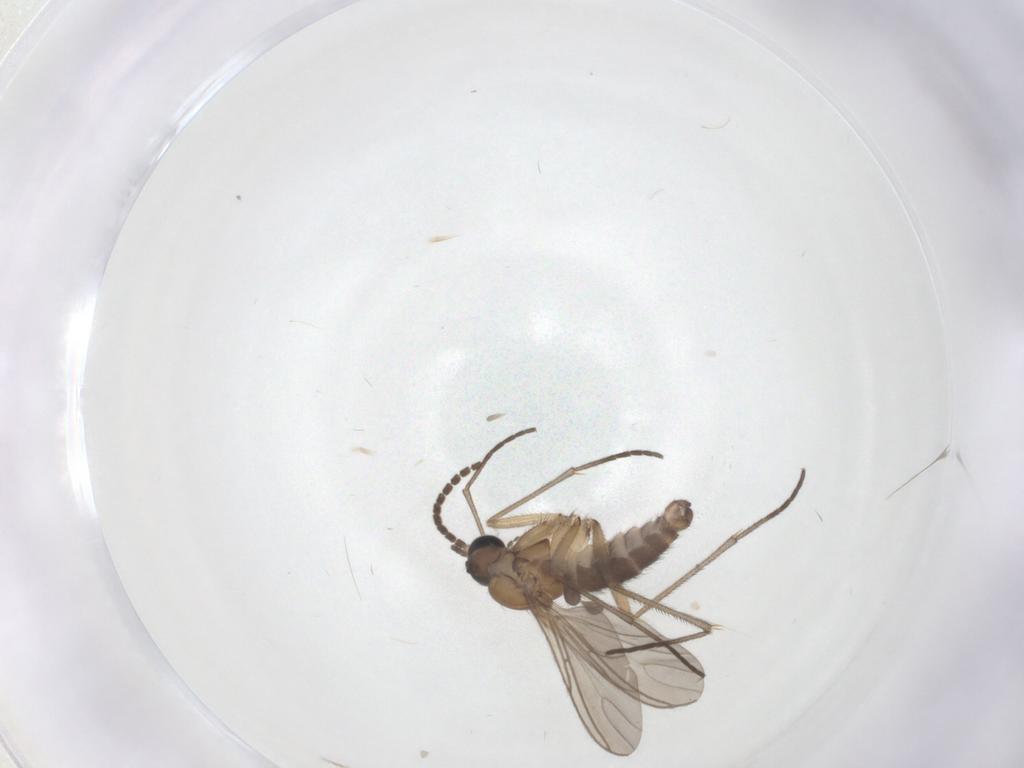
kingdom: Animalia
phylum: Arthropoda
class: Insecta
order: Diptera
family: Sciaridae
